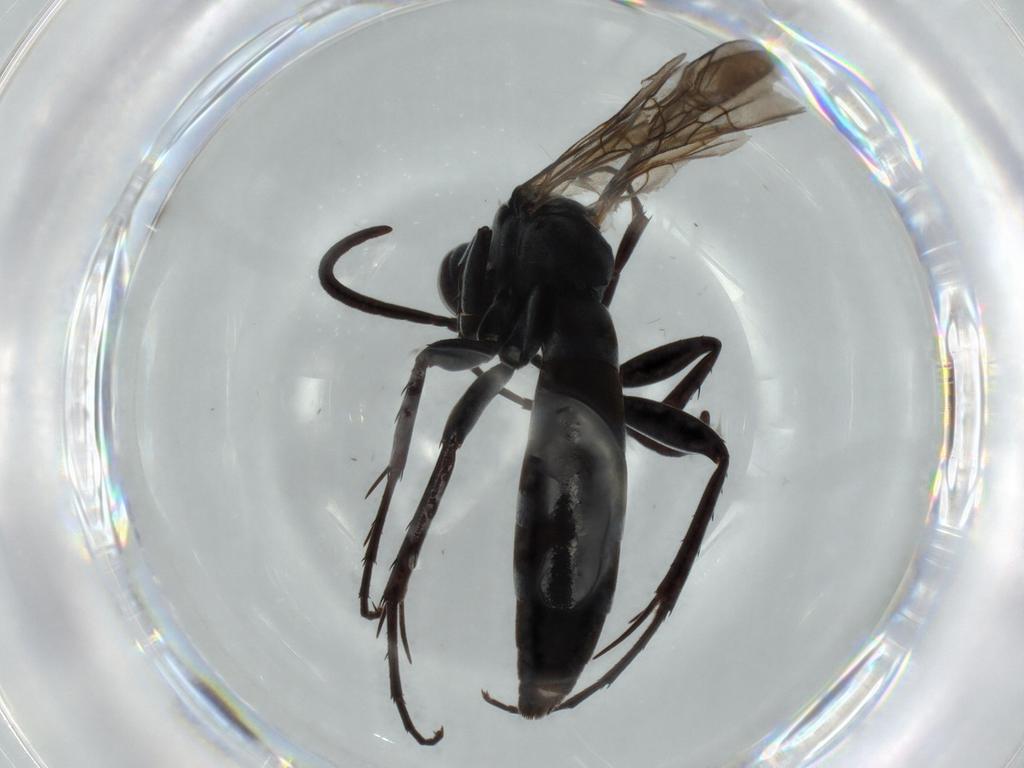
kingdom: Animalia
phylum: Arthropoda
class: Insecta
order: Hymenoptera
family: Pompilidae
